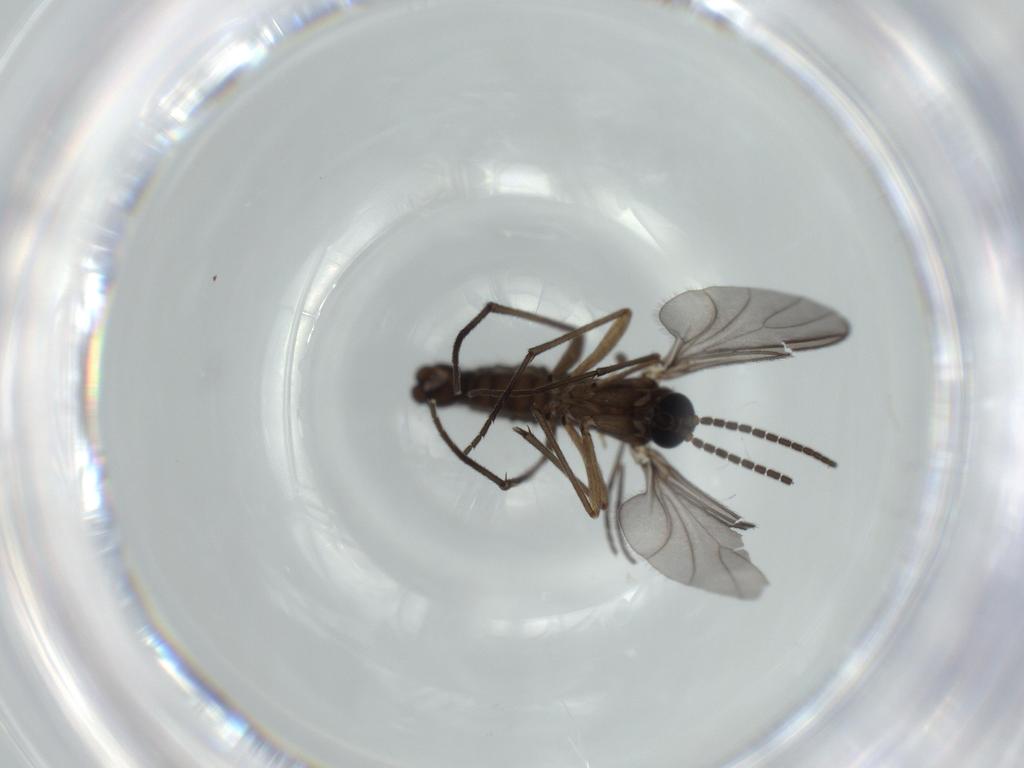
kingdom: Animalia
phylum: Arthropoda
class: Insecta
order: Diptera
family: Sciaridae
